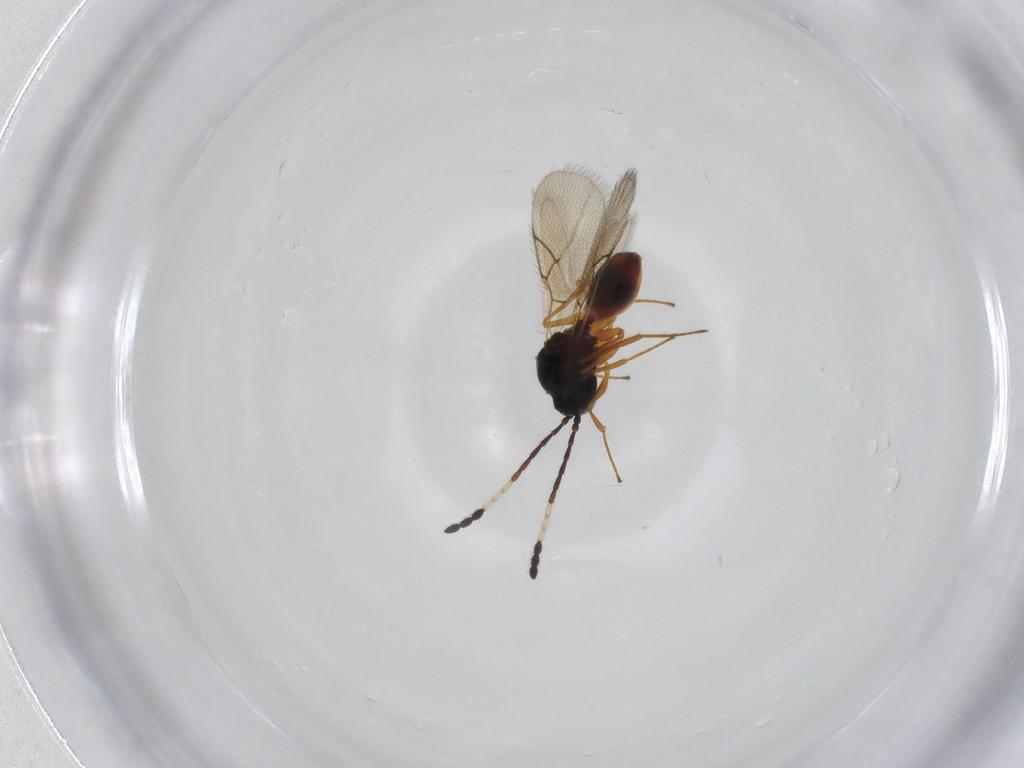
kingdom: Animalia
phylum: Arthropoda
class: Insecta
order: Hymenoptera
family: Figitidae
